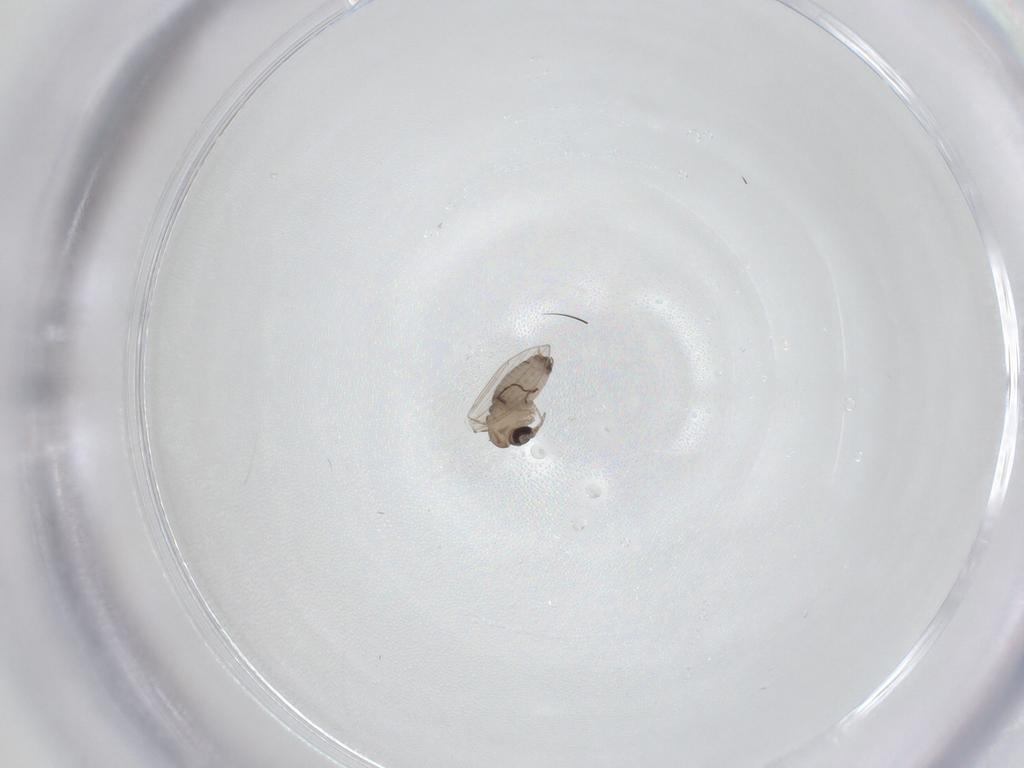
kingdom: Animalia
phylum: Arthropoda
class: Insecta
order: Diptera
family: Psychodidae
